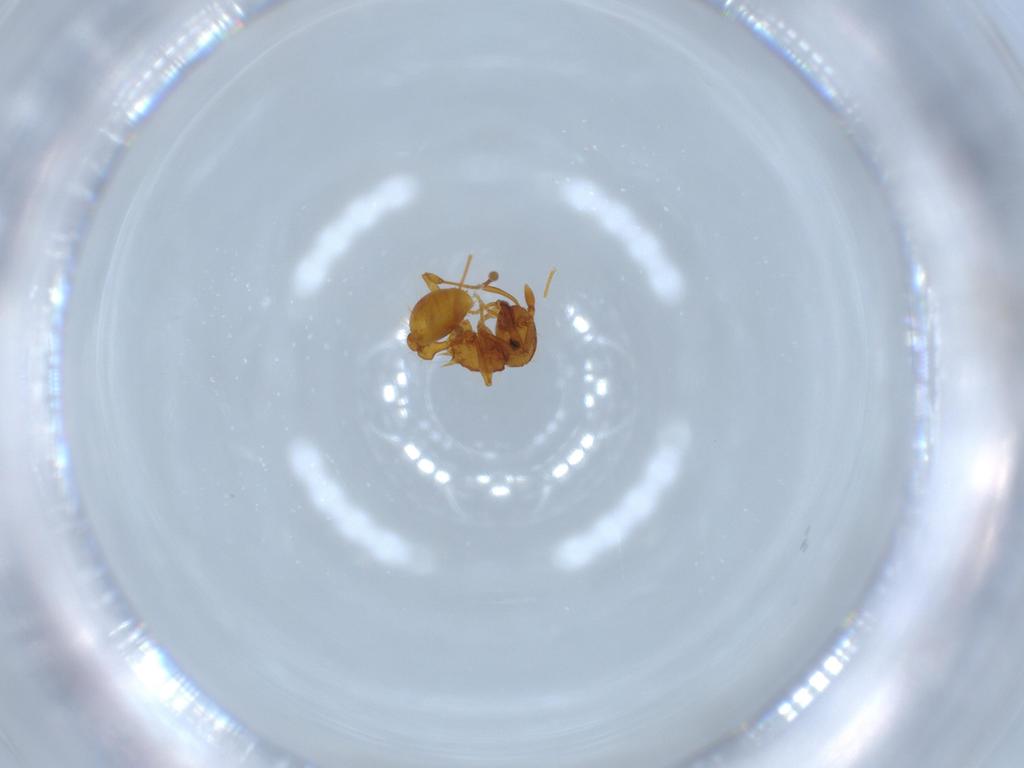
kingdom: Animalia
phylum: Arthropoda
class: Insecta
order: Hymenoptera
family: Formicidae
